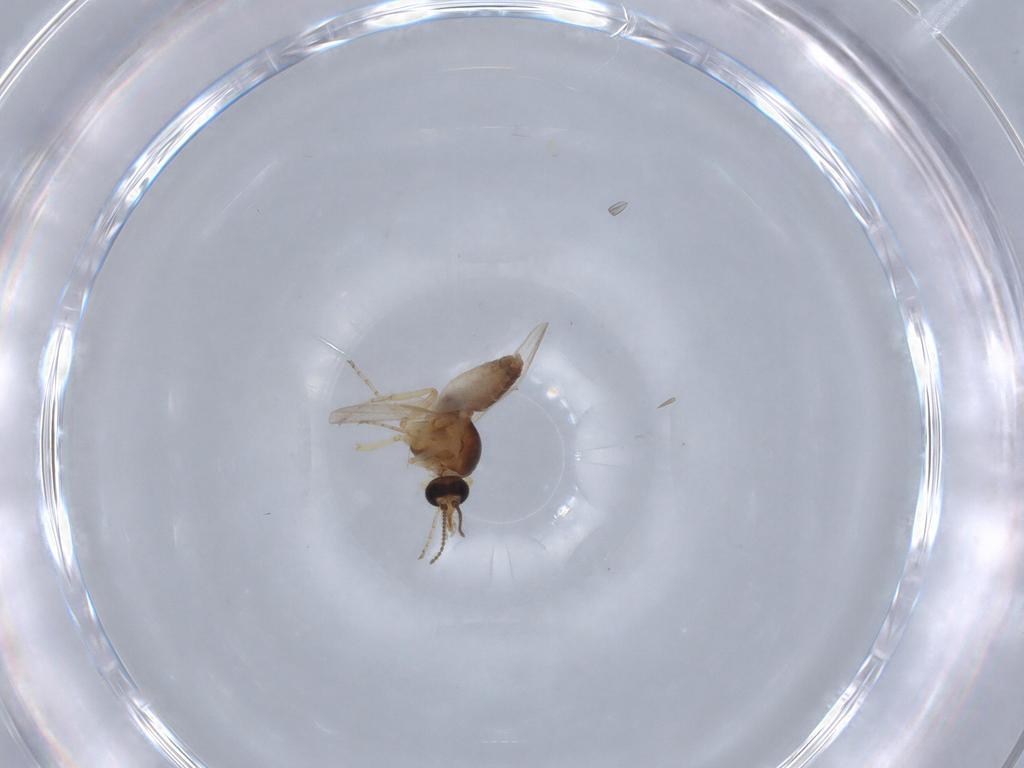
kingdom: Animalia
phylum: Arthropoda
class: Insecta
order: Diptera
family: Ceratopogonidae
